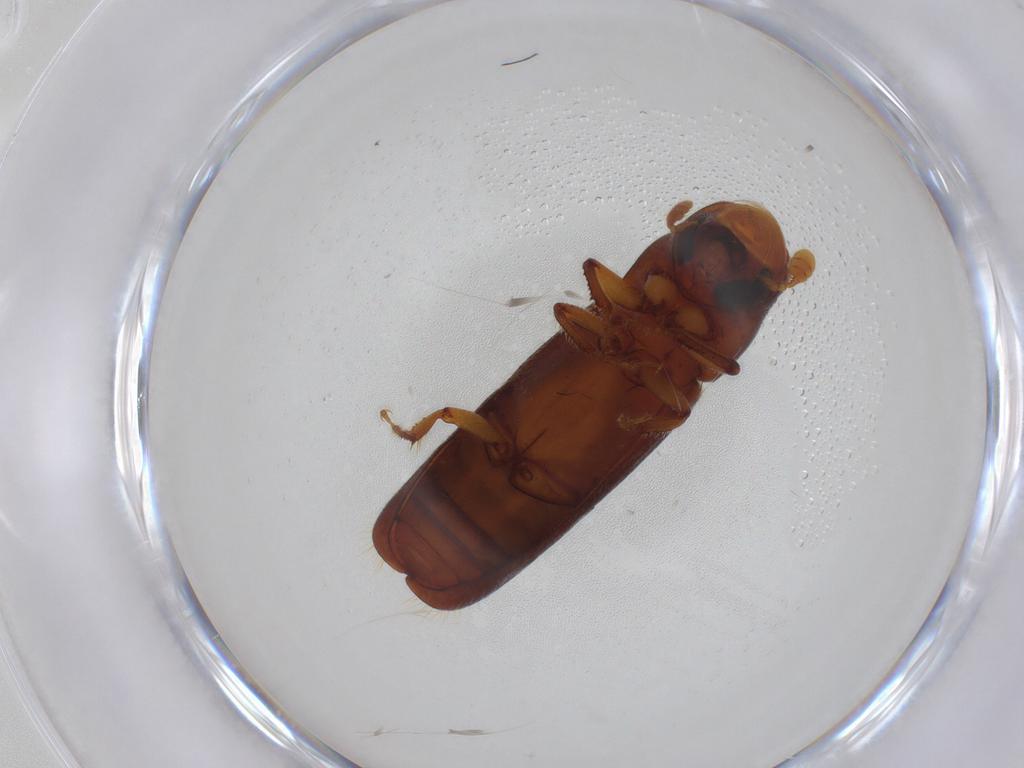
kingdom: Animalia
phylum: Arthropoda
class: Insecta
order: Coleoptera
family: Curculionidae
